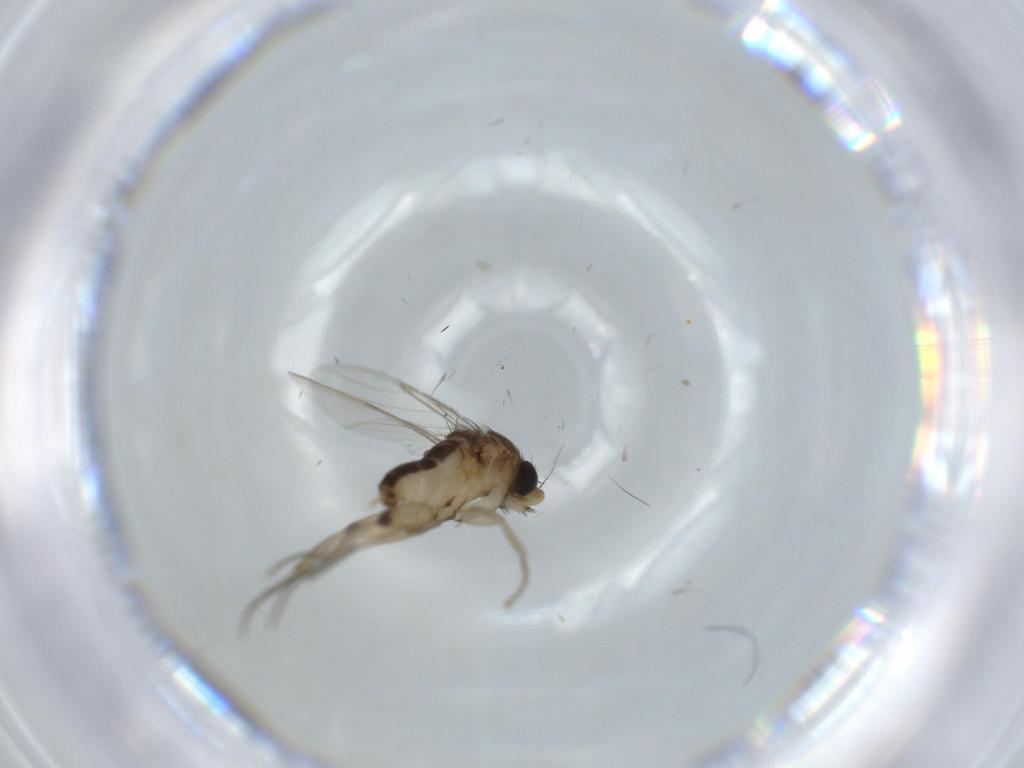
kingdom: Animalia
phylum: Arthropoda
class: Insecta
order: Diptera
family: Phoridae
